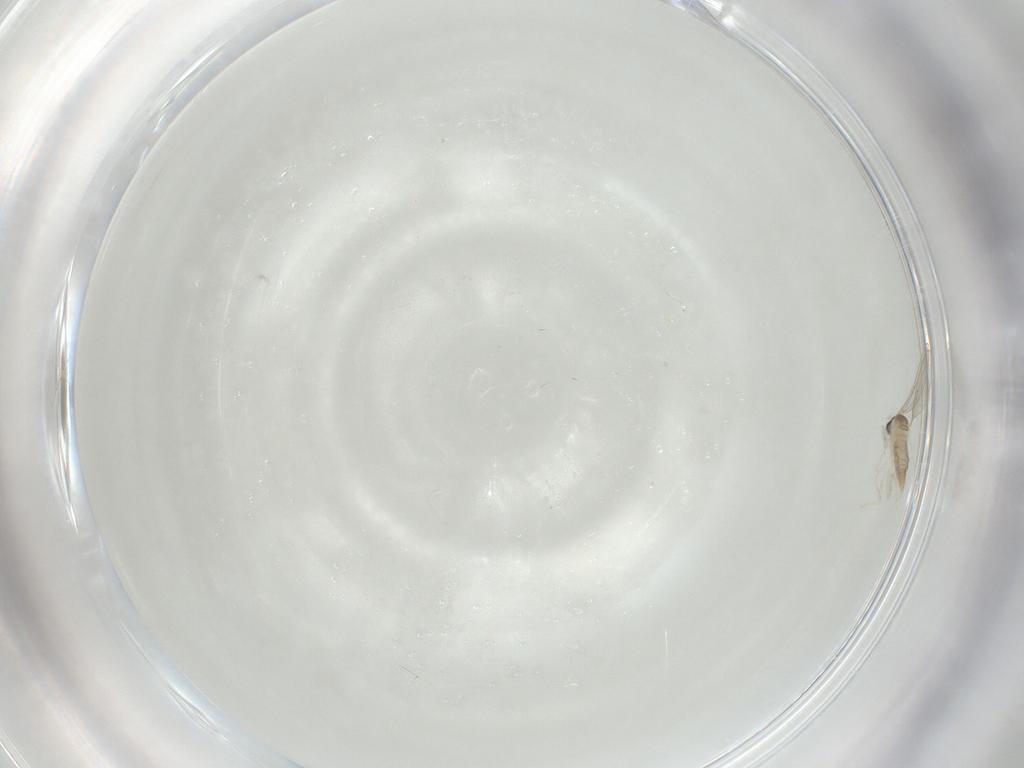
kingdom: Animalia
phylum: Arthropoda
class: Insecta
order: Diptera
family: Cecidomyiidae
